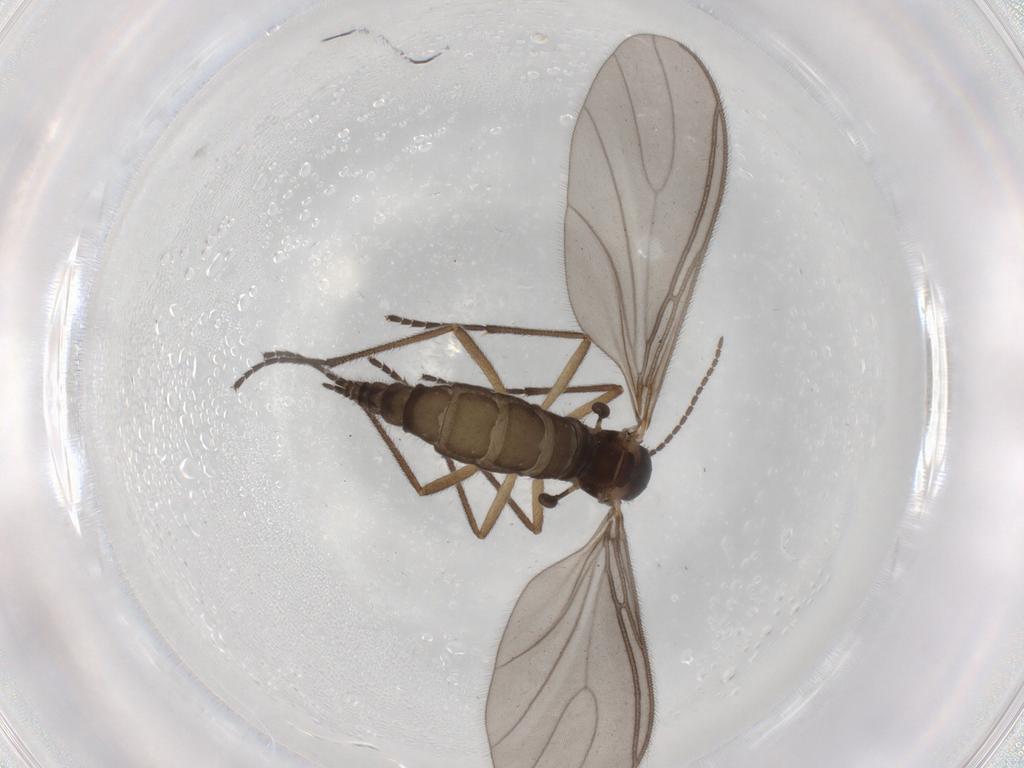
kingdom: Animalia
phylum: Arthropoda
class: Insecta
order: Diptera
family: Sciaridae
